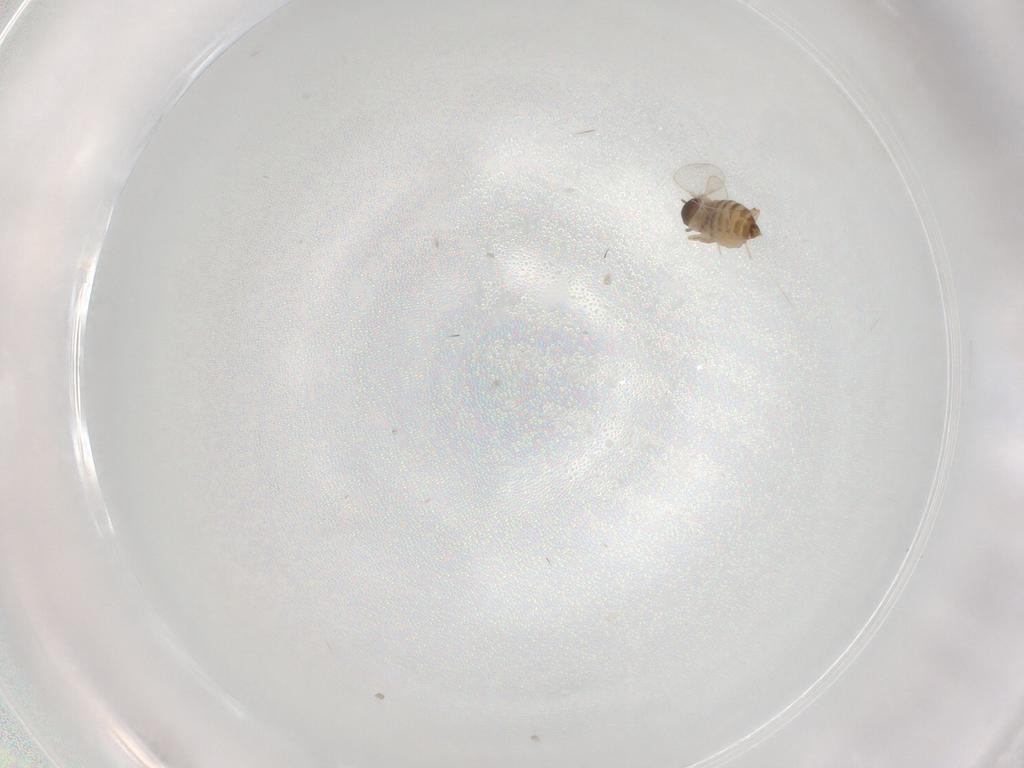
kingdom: Animalia
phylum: Arthropoda
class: Insecta
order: Diptera
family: Cecidomyiidae
